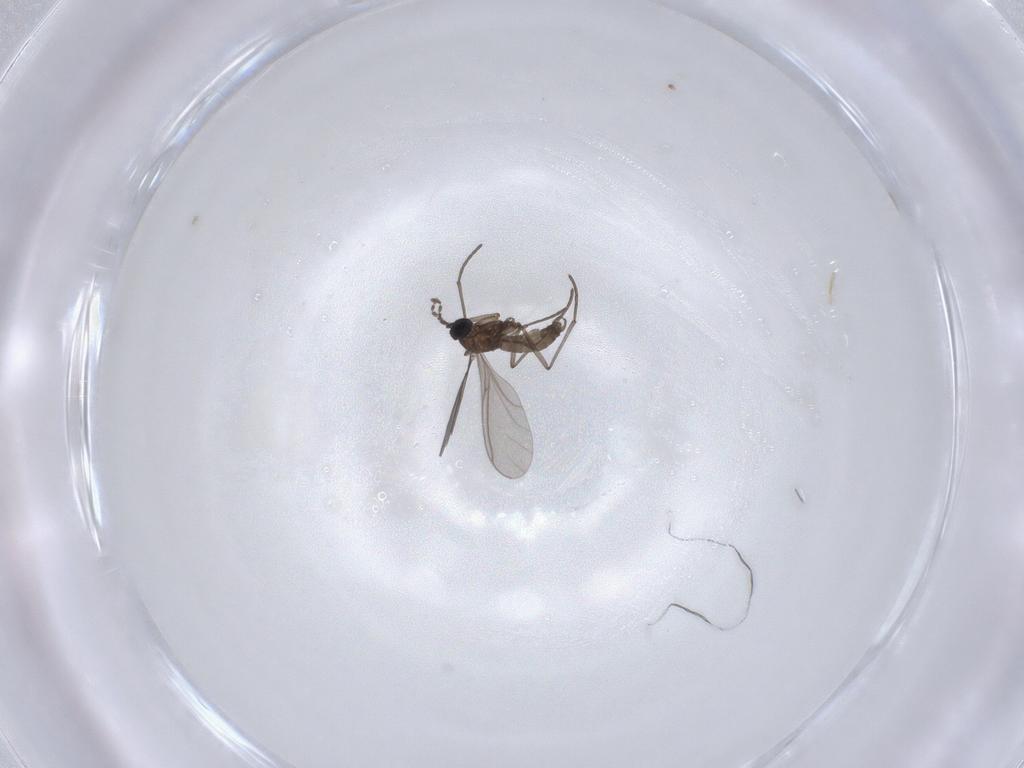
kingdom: Animalia
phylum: Arthropoda
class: Insecta
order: Diptera
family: Chironomidae
